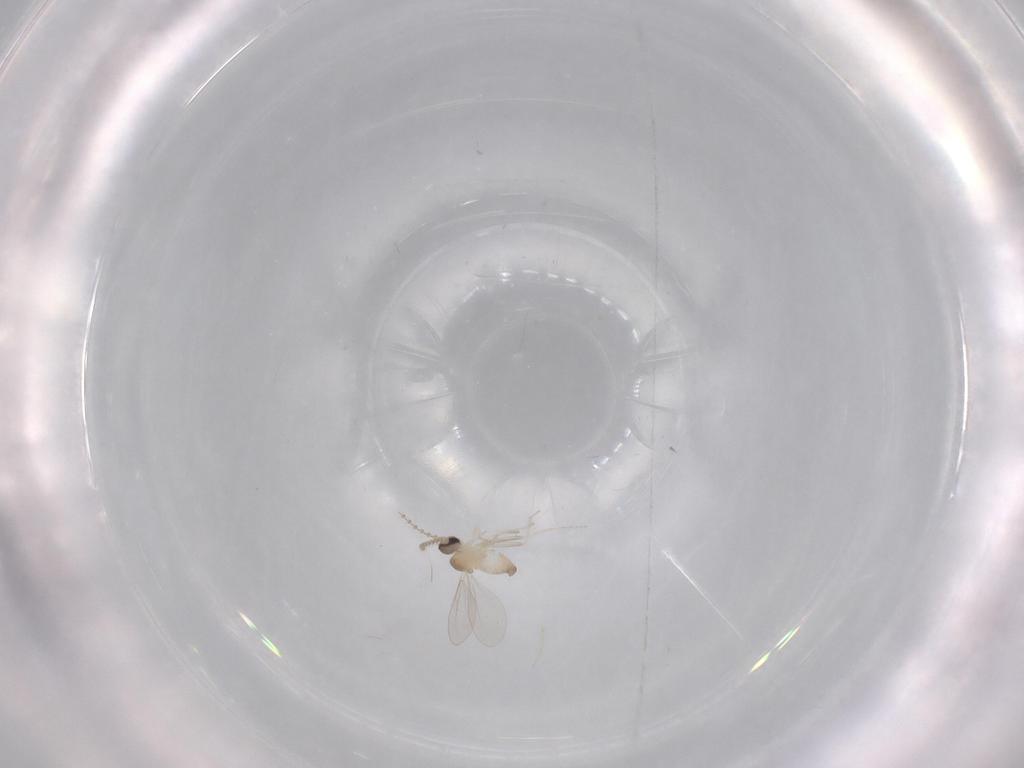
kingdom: Animalia
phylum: Arthropoda
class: Insecta
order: Diptera
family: Cecidomyiidae
